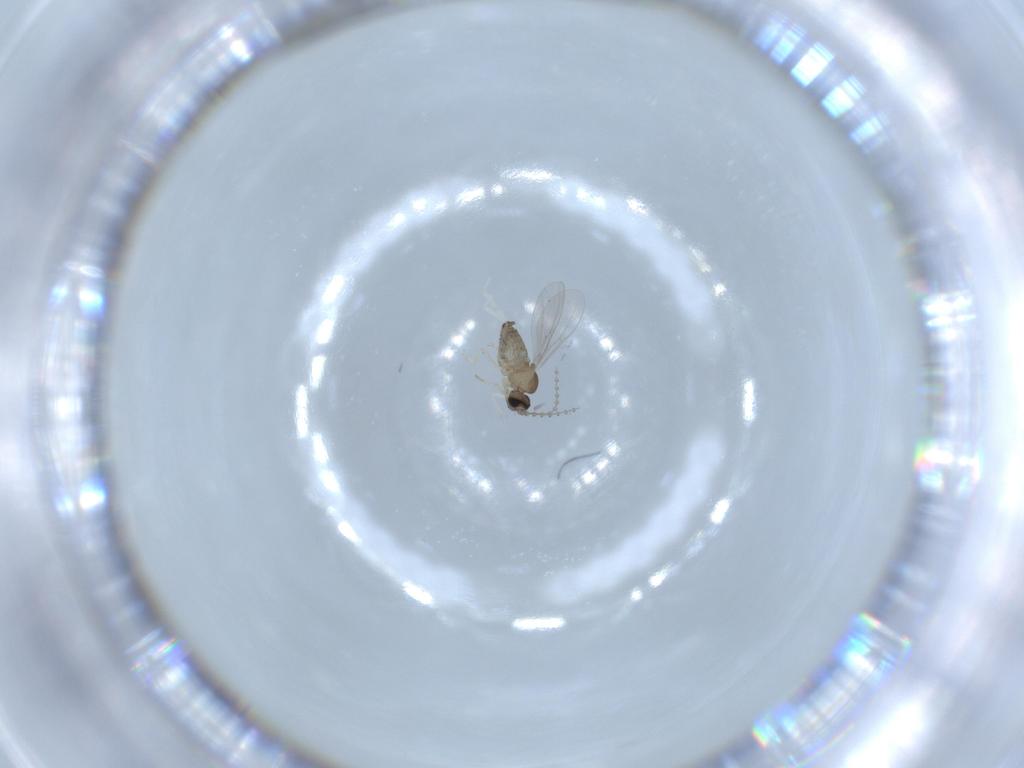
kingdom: Animalia
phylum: Arthropoda
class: Insecta
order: Diptera
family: Cecidomyiidae
